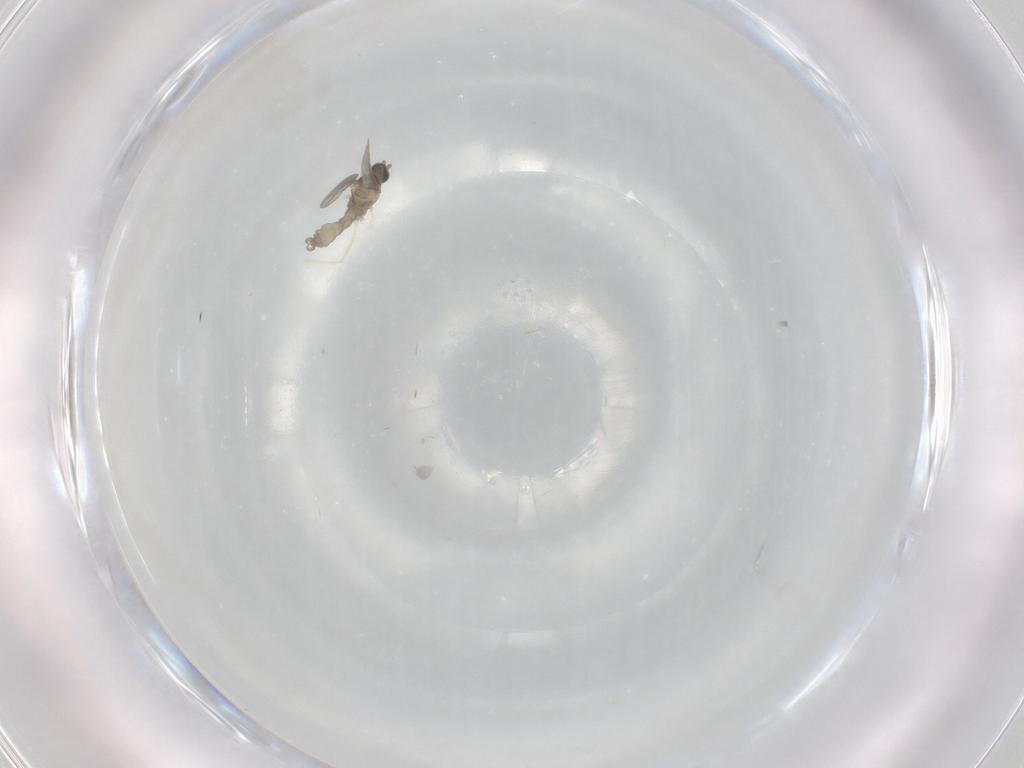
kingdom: Animalia
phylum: Arthropoda
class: Insecta
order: Diptera
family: Cecidomyiidae
